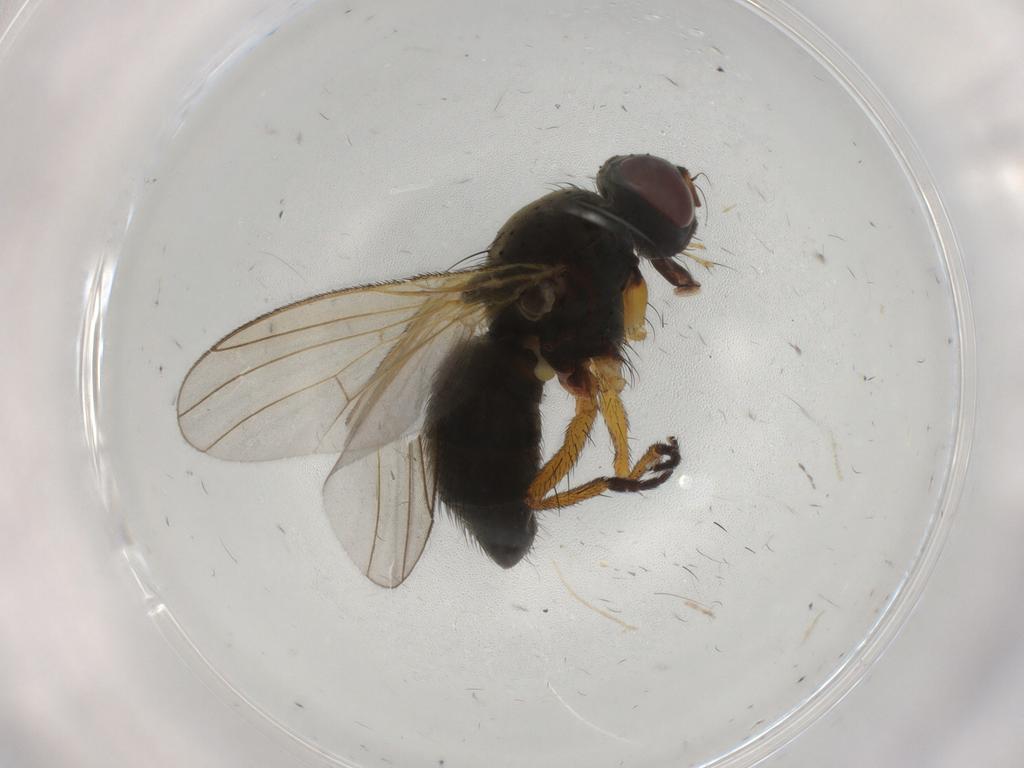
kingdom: Animalia
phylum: Arthropoda
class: Insecta
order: Diptera
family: Muscidae
